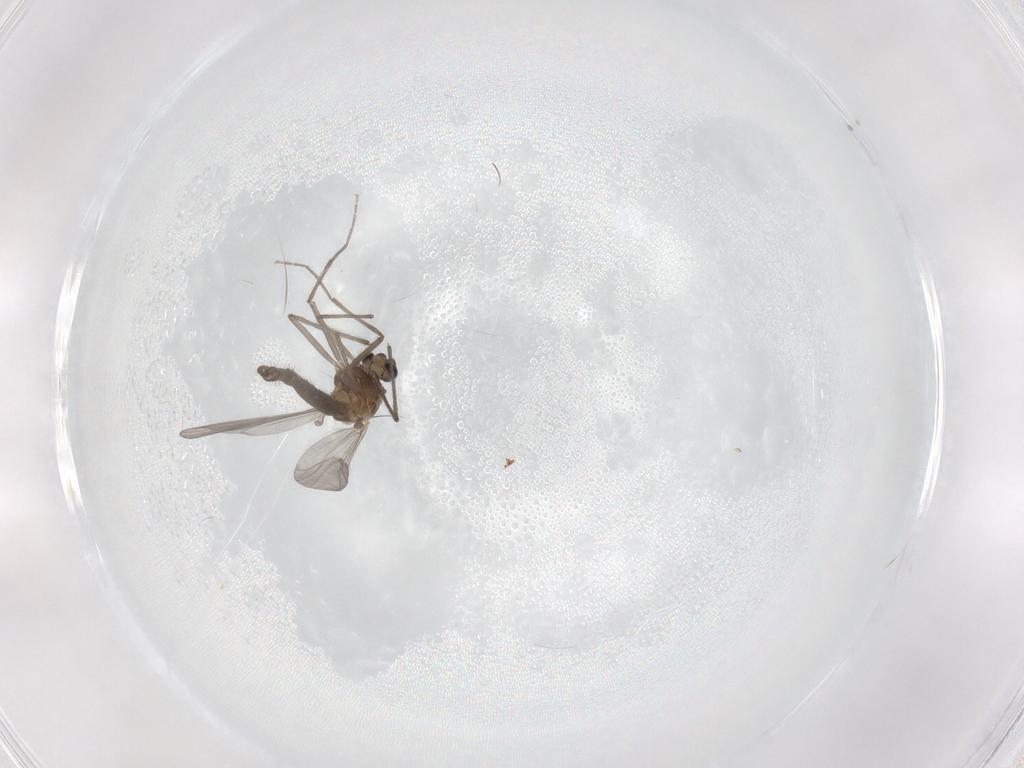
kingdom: Animalia
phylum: Arthropoda
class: Insecta
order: Diptera
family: Chironomidae
